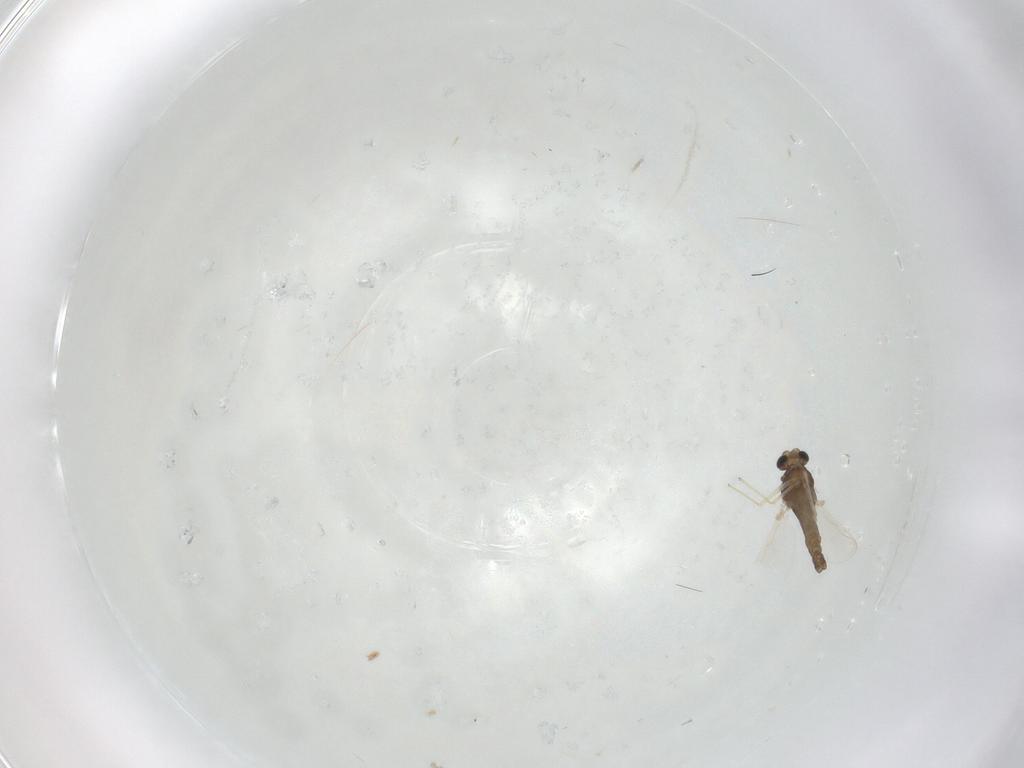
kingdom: Animalia
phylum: Arthropoda
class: Insecta
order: Diptera
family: Chironomidae
